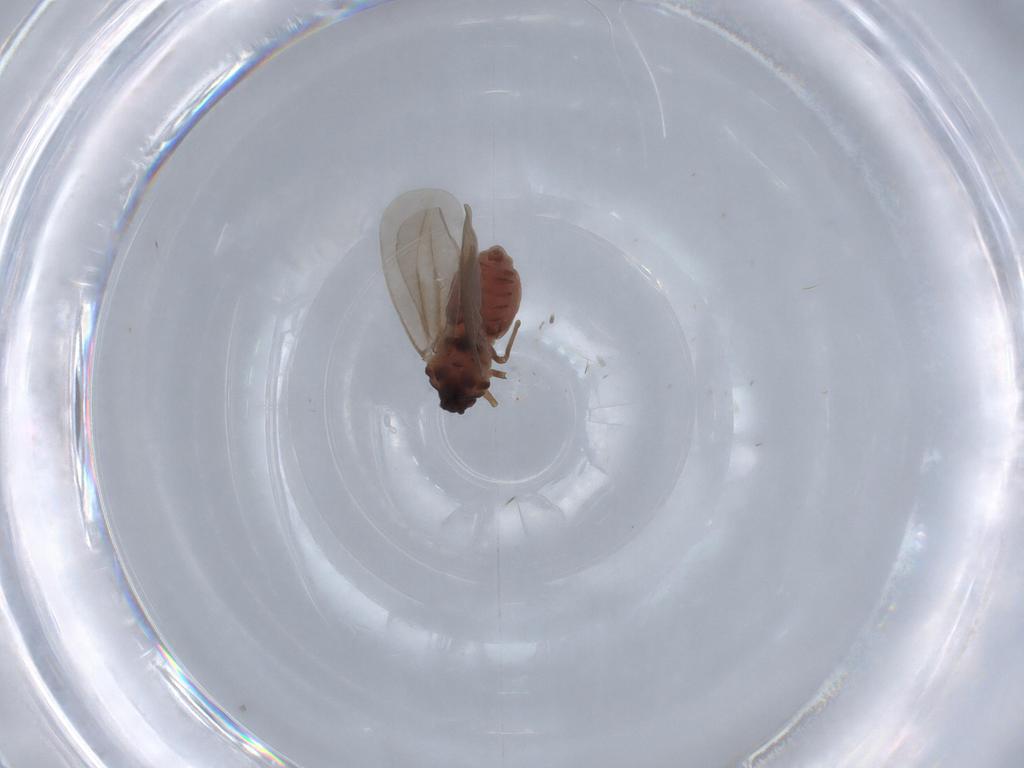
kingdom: Animalia
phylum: Arthropoda
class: Insecta
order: Hemiptera
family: Aleyrodidae
